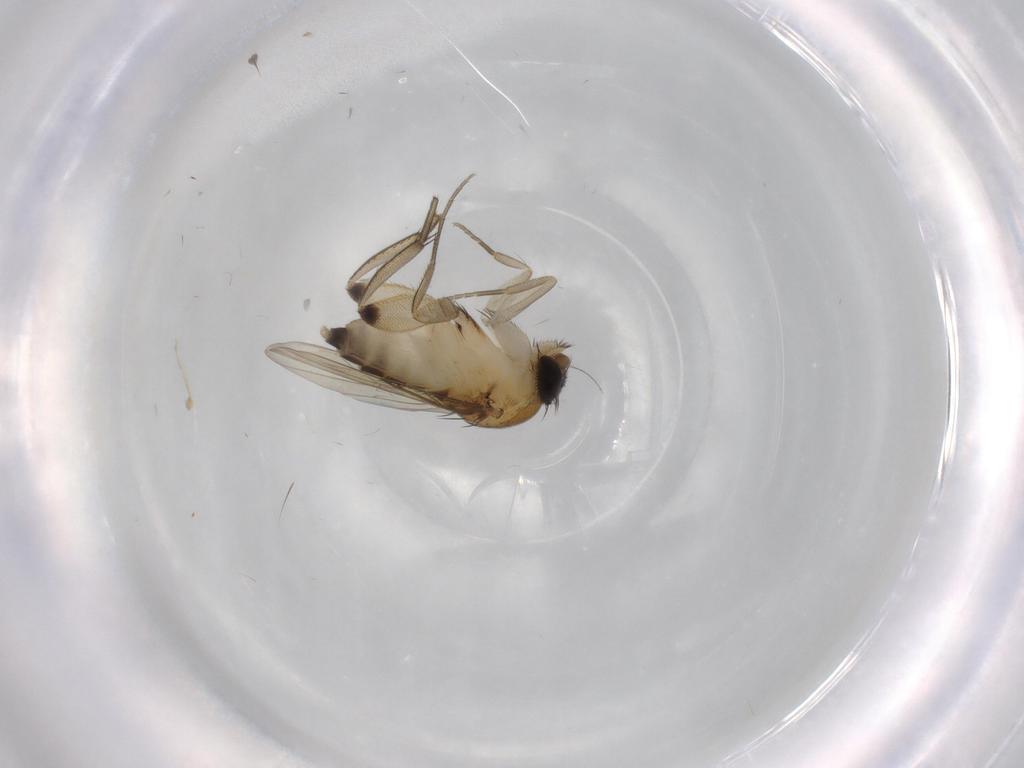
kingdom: Animalia
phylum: Arthropoda
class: Insecta
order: Diptera
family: Phoridae
